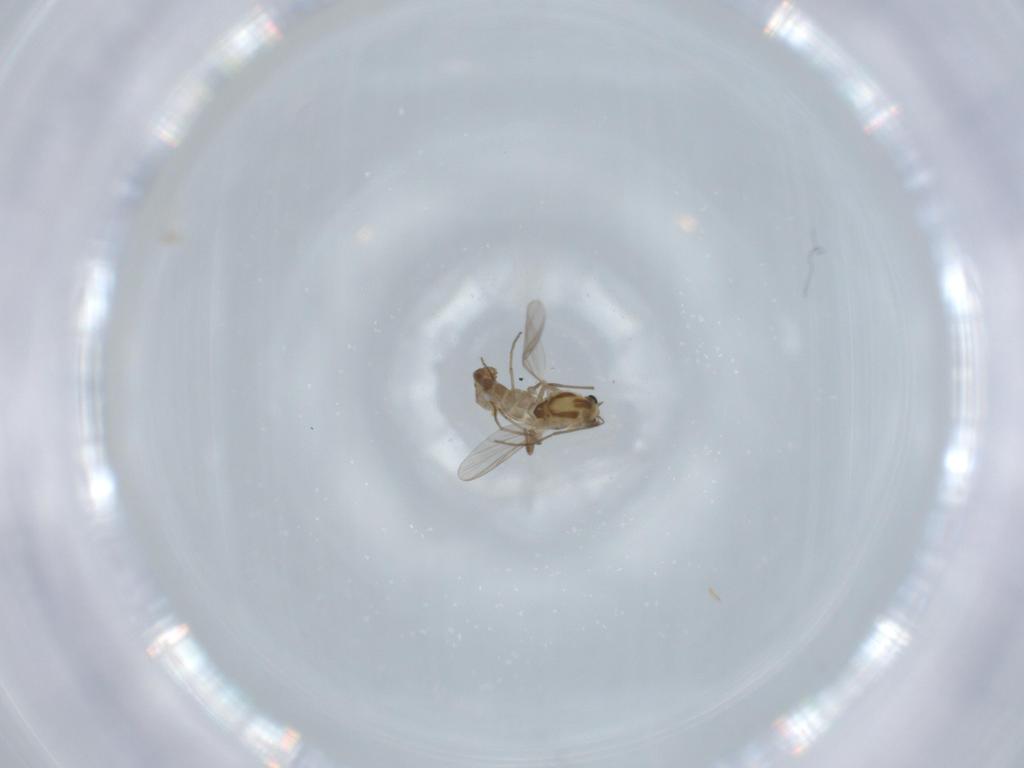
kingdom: Animalia
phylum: Arthropoda
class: Insecta
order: Diptera
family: Chironomidae
